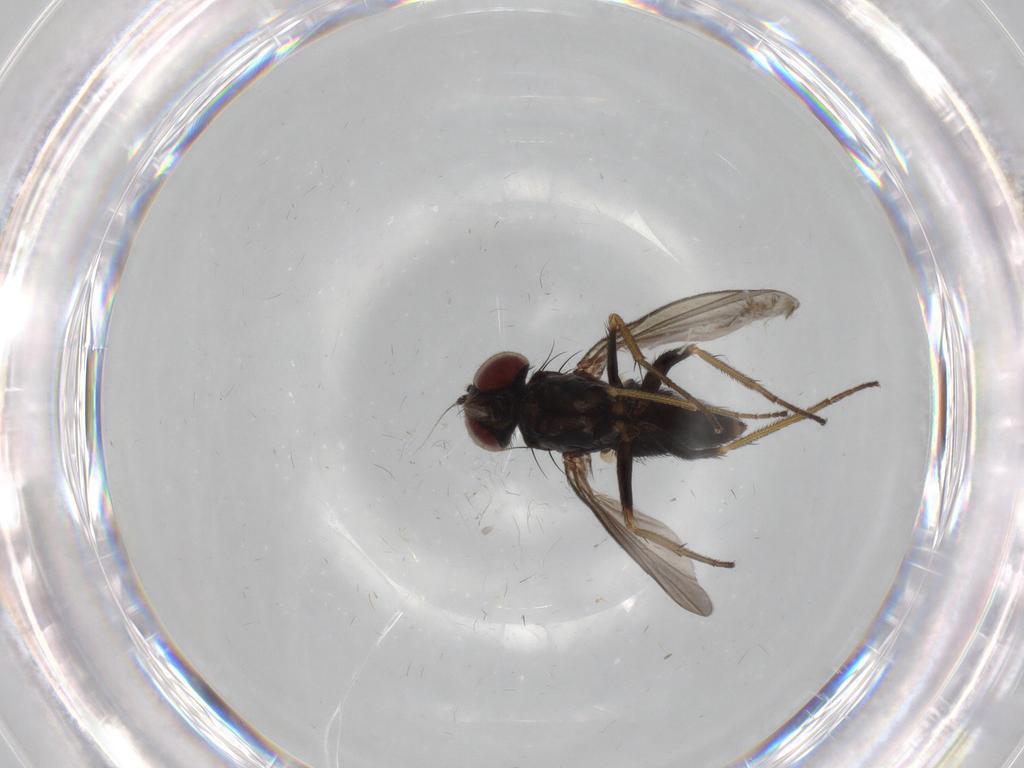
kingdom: Animalia
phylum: Arthropoda
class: Insecta
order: Diptera
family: Dolichopodidae
